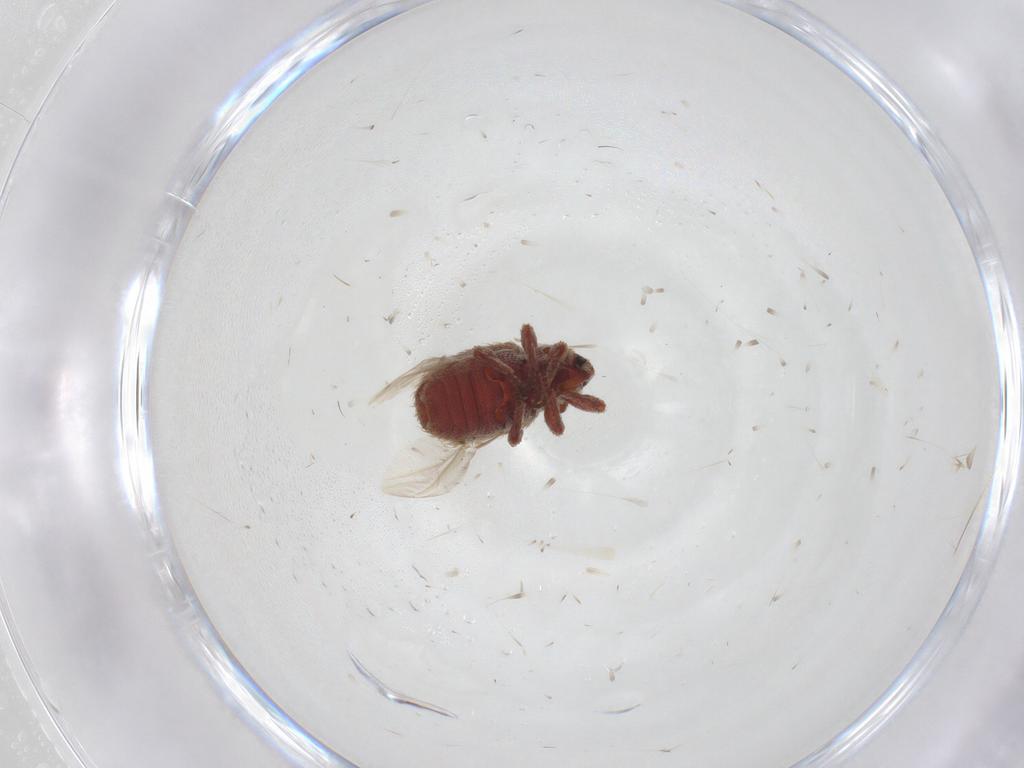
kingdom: Animalia
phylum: Arthropoda
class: Insecta
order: Coleoptera
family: Curculionidae
